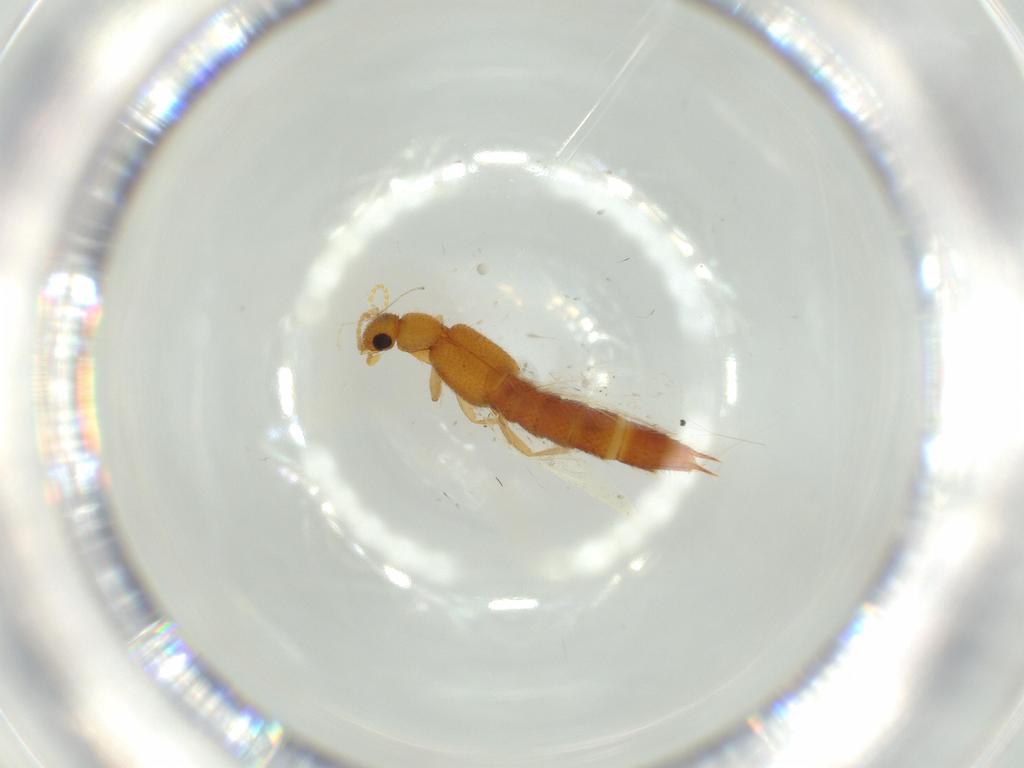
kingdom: Animalia
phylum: Arthropoda
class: Insecta
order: Coleoptera
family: Staphylinidae
